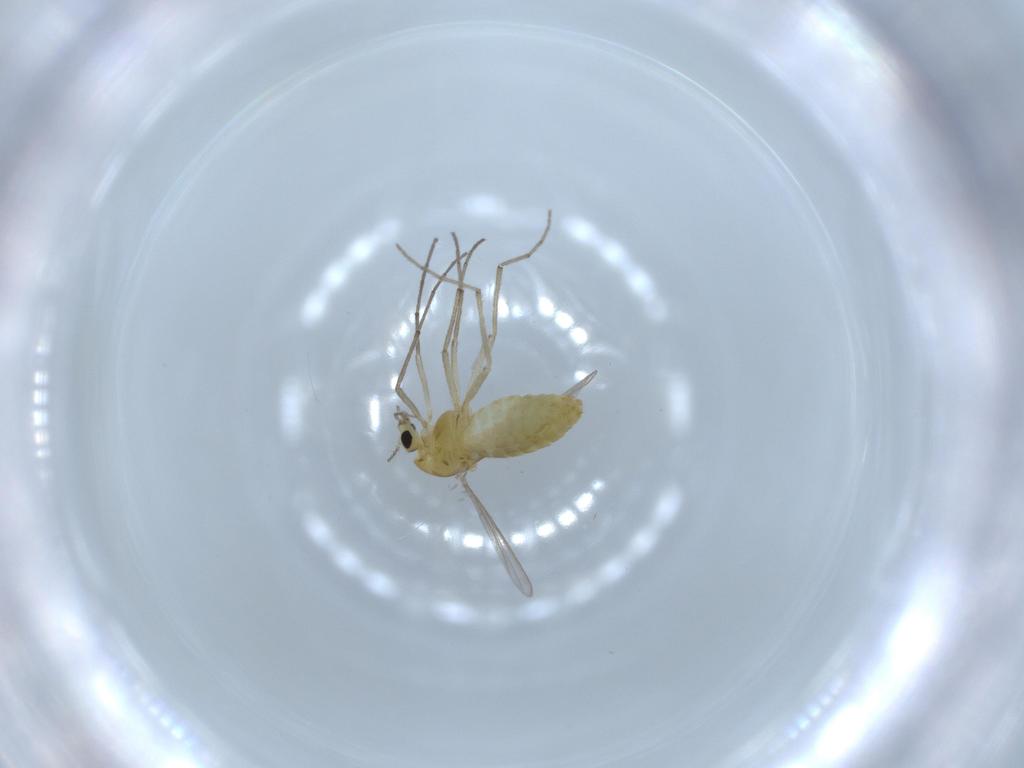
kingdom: Animalia
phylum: Arthropoda
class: Insecta
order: Diptera
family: Chironomidae
